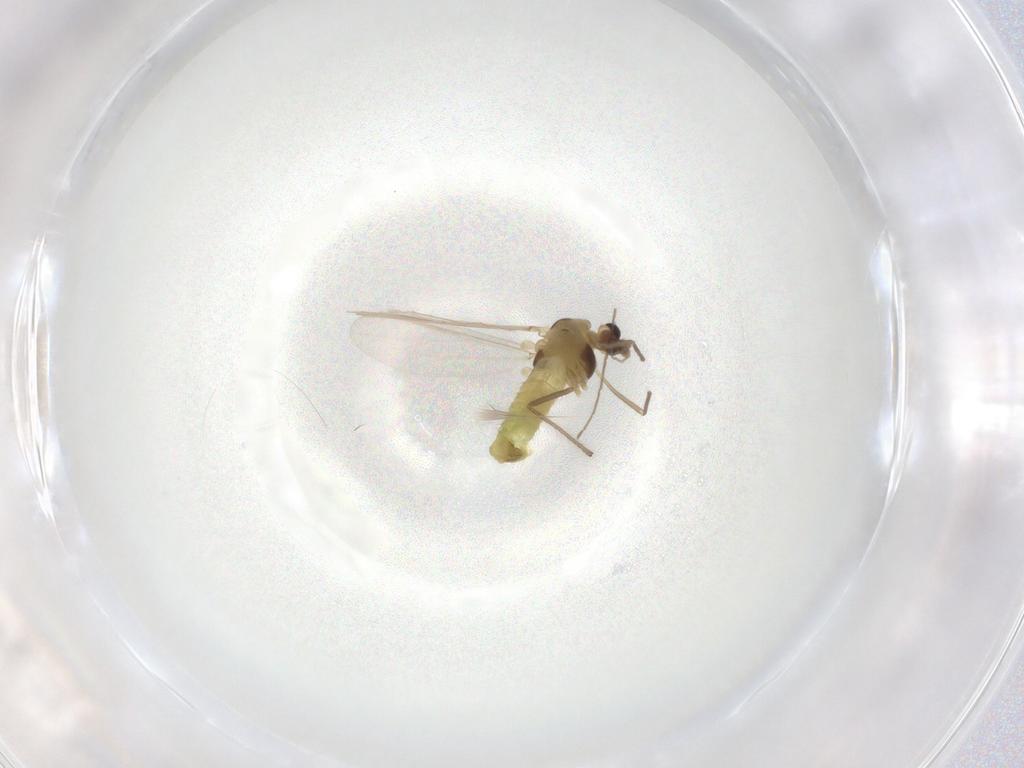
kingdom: Animalia
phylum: Arthropoda
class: Insecta
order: Diptera
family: Chironomidae
